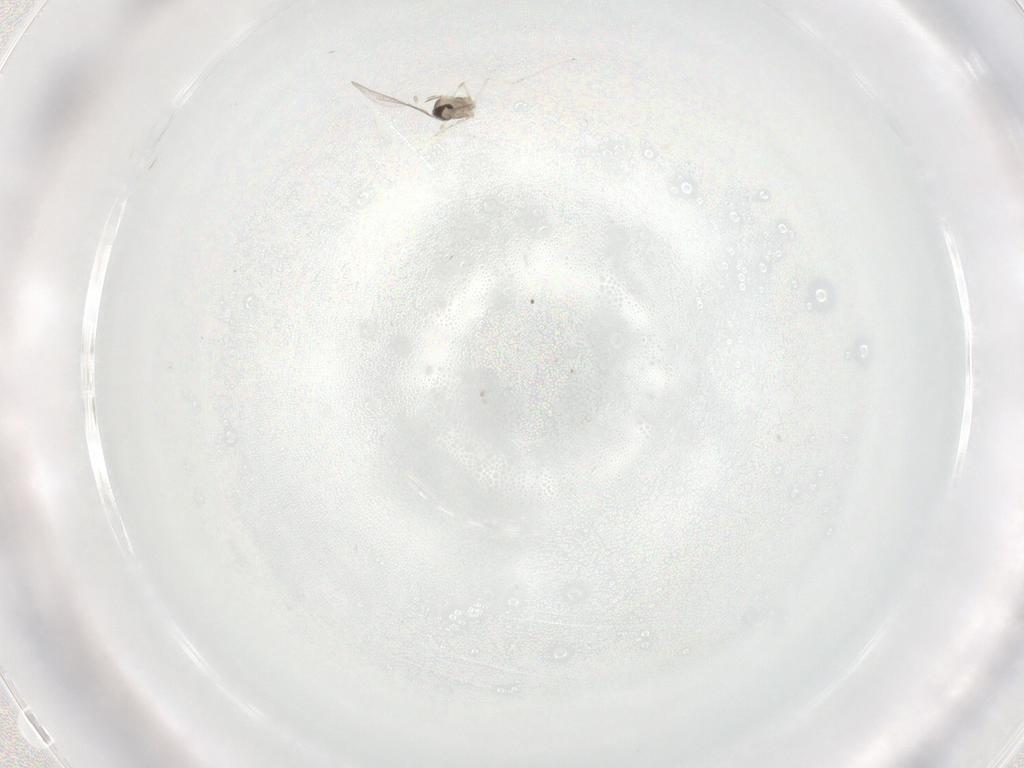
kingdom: Animalia
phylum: Arthropoda
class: Insecta
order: Diptera
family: Cecidomyiidae
